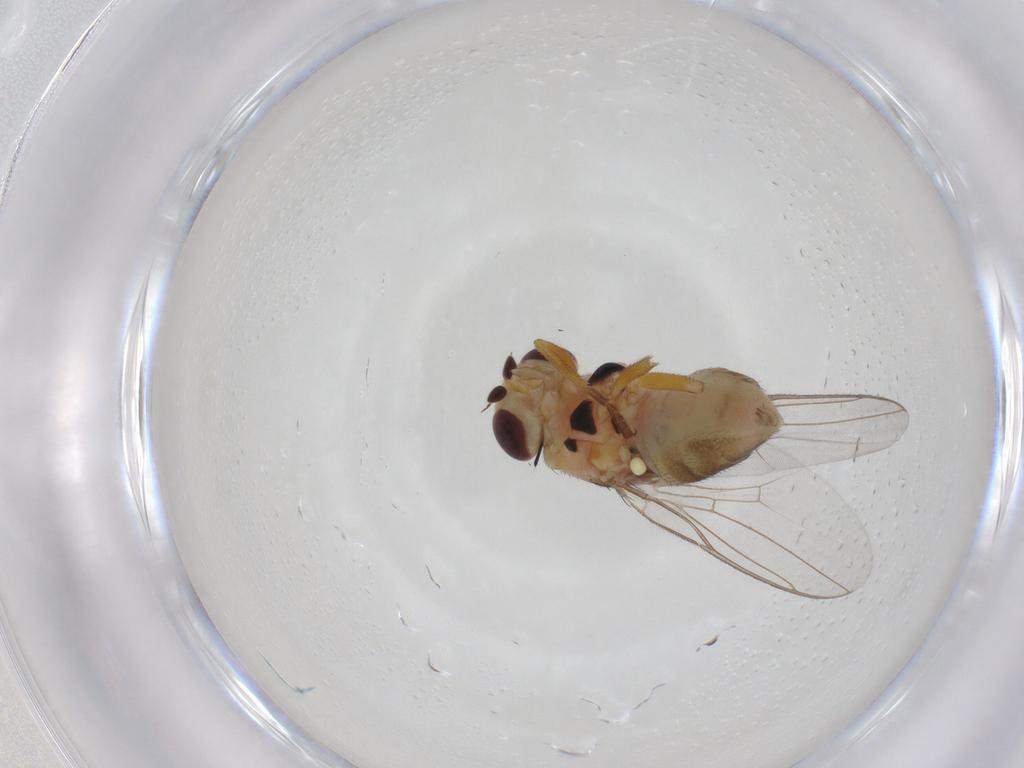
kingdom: Animalia
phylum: Arthropoda
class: Insecta
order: Diptera
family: Chloropidae
